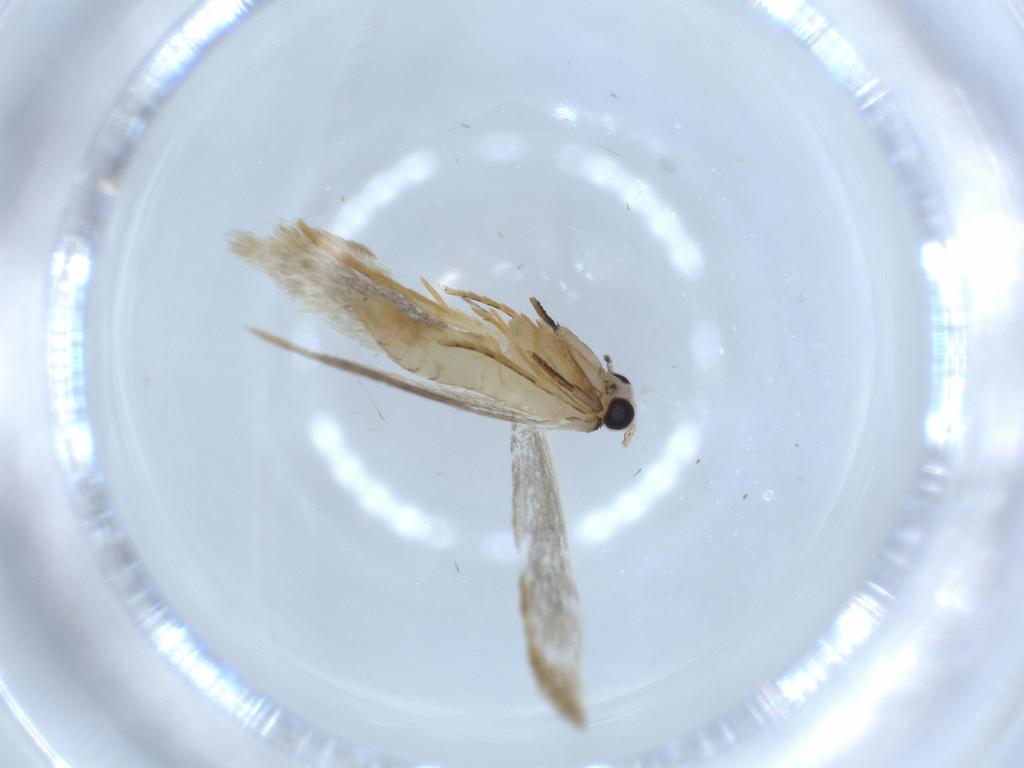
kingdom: Animalia
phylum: Arthropoda
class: Insecta
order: Lepidoptera
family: Tineidae
